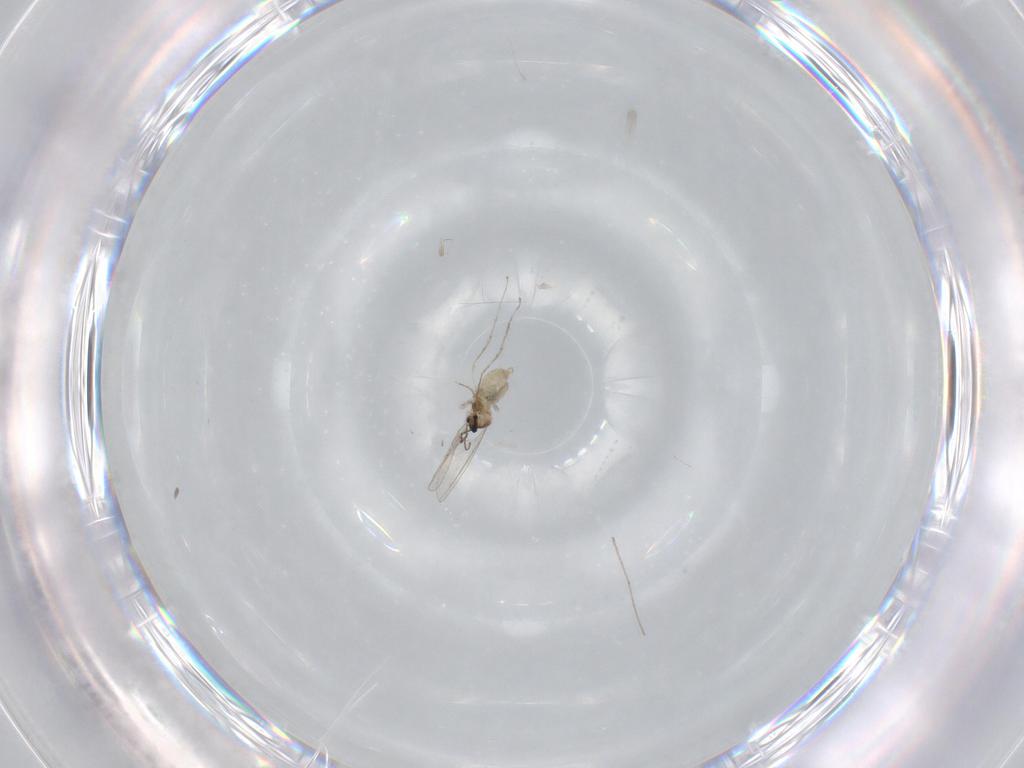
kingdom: Animalia
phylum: Arthropoda
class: Insecta
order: Diptera
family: Cecidomyiidae
